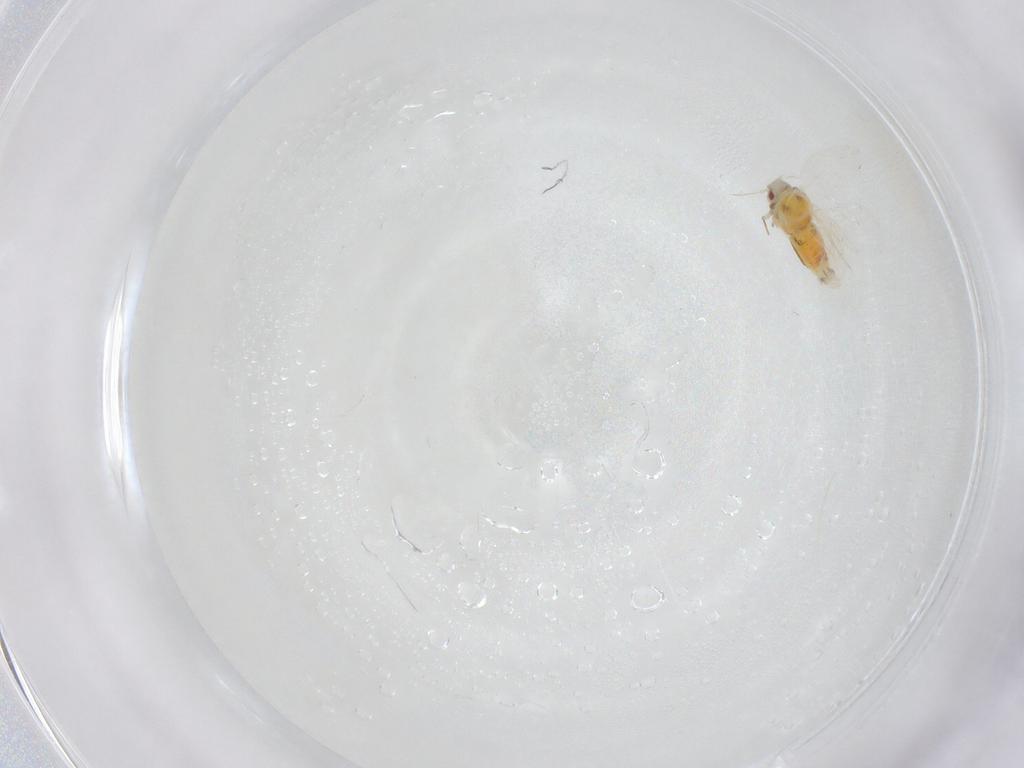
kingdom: Animalia
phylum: Arthropoda
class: Insecta
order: Hemiptera
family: Aleyrodidae
